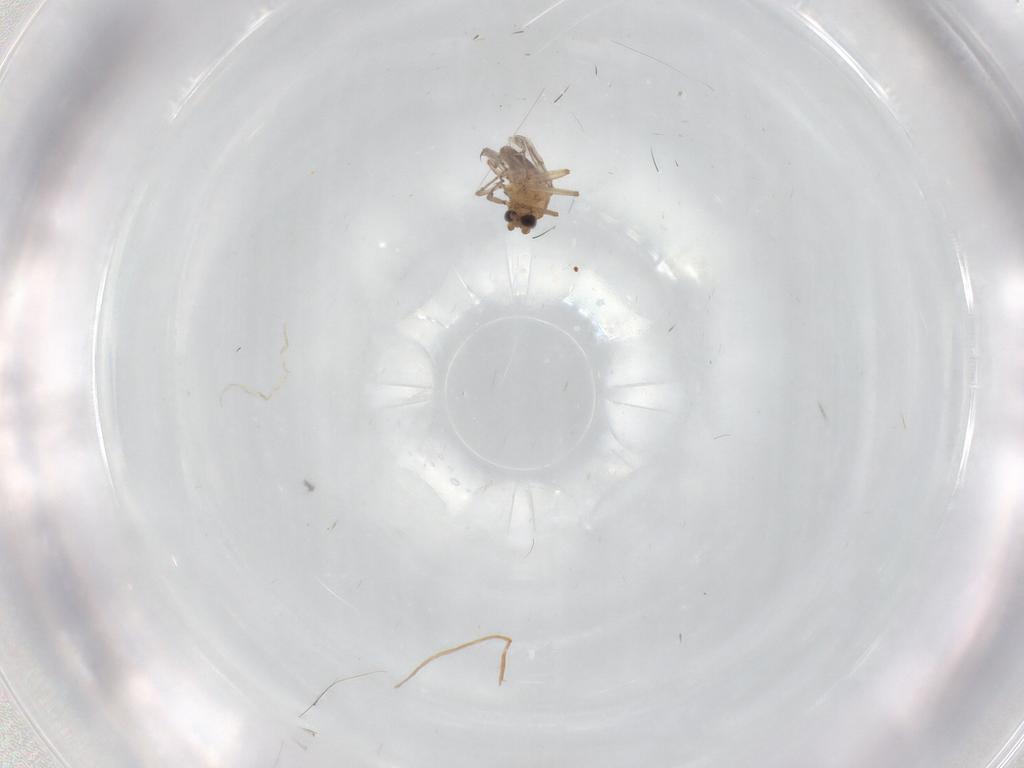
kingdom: Animalia
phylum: Arthropoda
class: Insecta
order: Diptera
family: Ceratopogonidae
